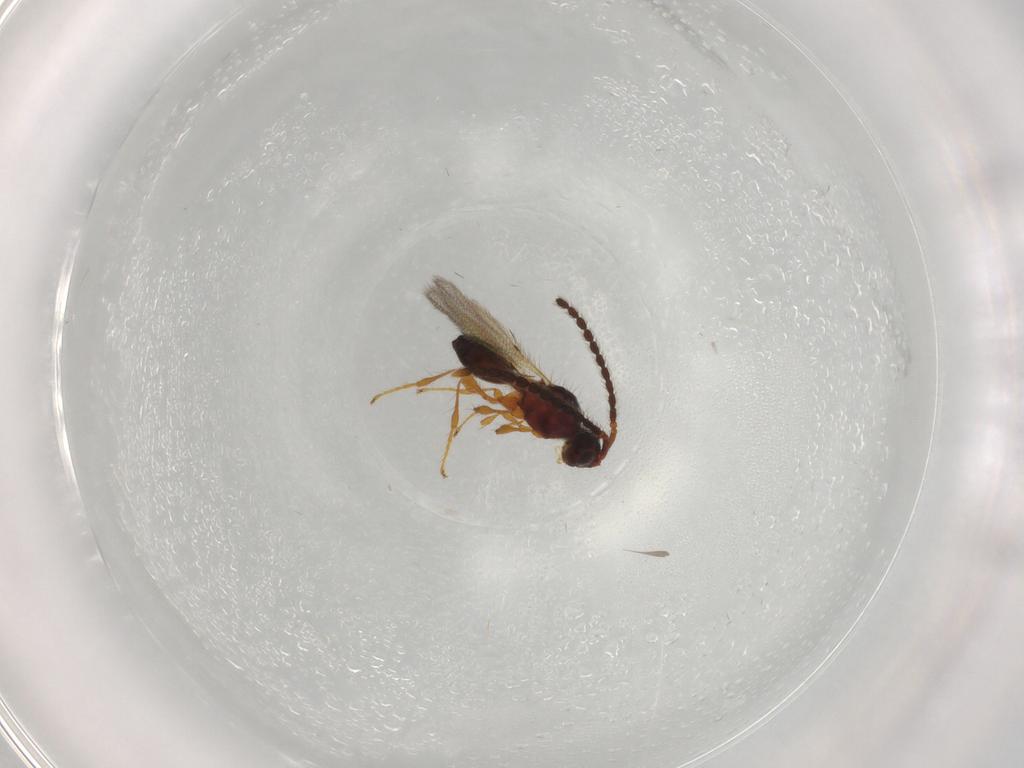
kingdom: Animalia
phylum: Arthropoda
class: Insecta
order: Hymenoptera
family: Diapriidae
